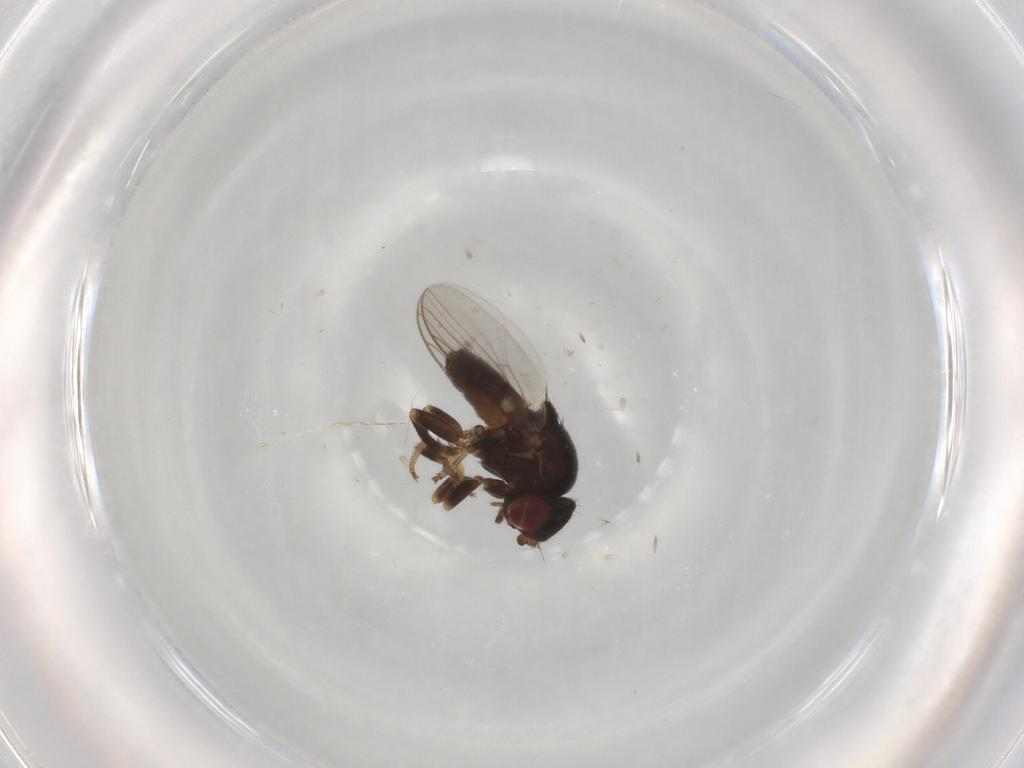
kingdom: Animalia
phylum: Arthropoda
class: Insecta
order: Diptera
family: Chloropidae
